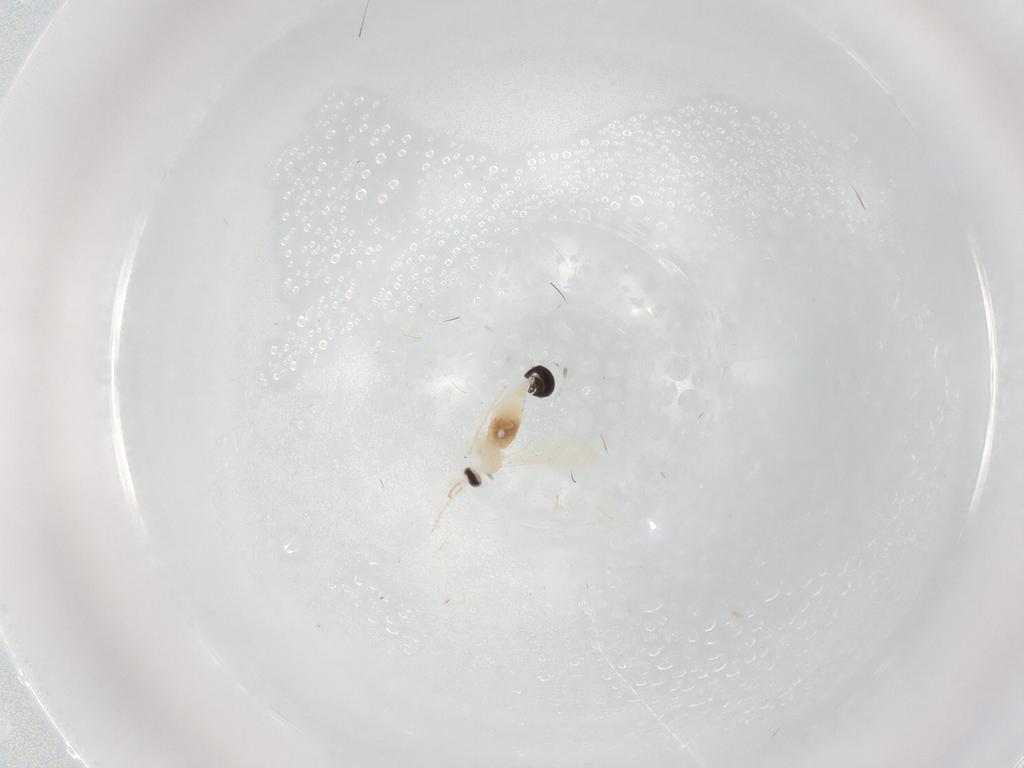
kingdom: Animalia
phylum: Arthropoda
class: Insecta
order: Diptera
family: Cecidomyiidae
